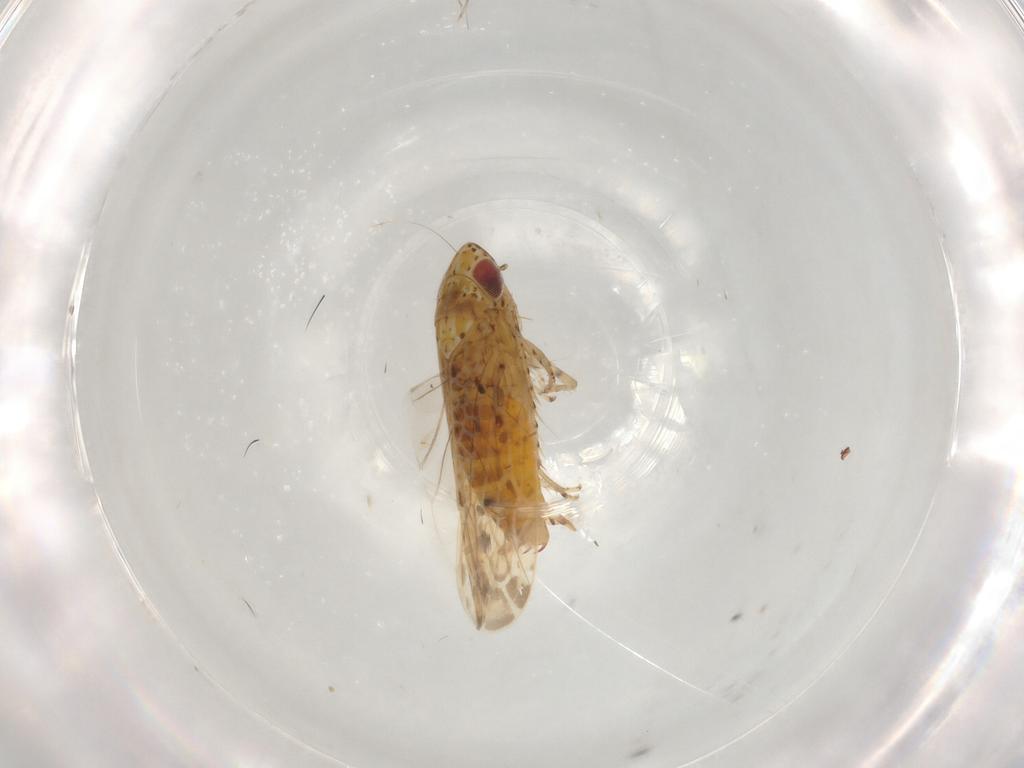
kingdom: Animalia
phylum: Arthropoda
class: Insecta
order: Hemiptera
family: Aleyrodidae
